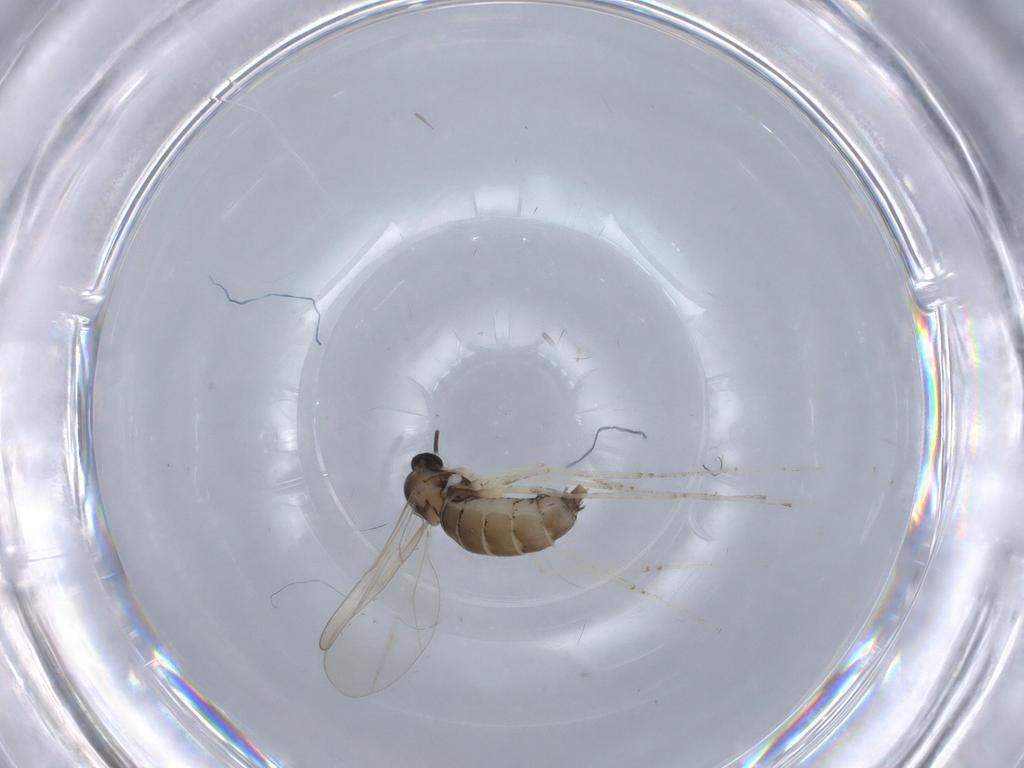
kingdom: Animalia
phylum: Arthropoda
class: Insecta
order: Diptera
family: Cecidomyiidae
